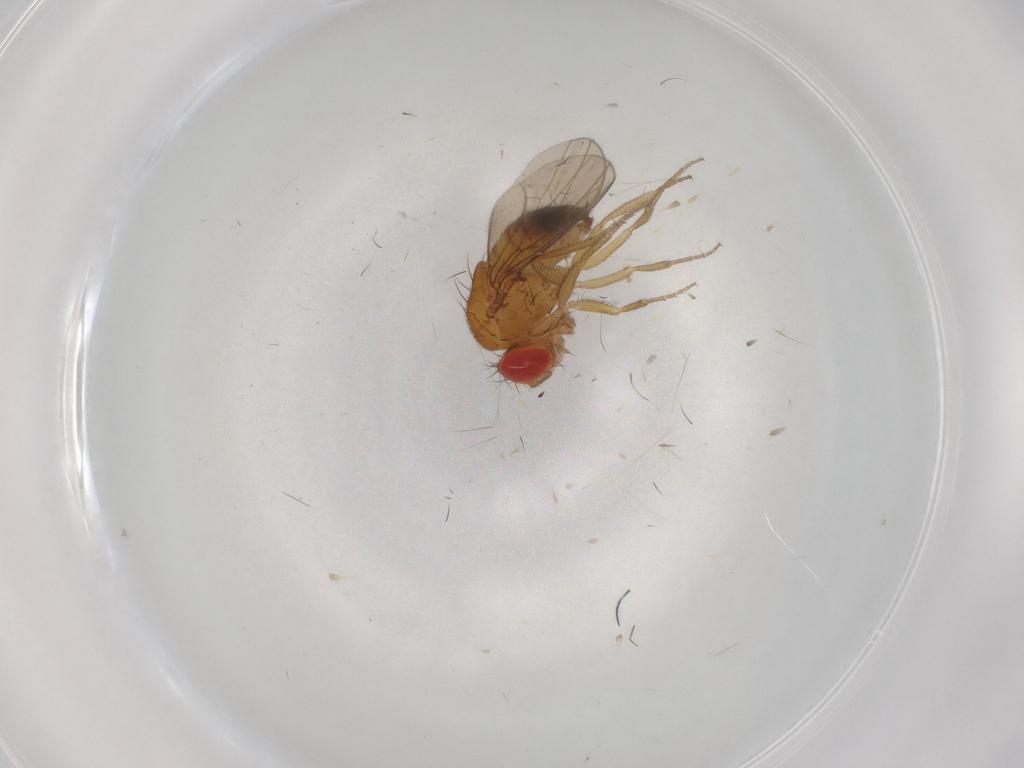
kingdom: Animalia
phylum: Arthropoda
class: Insecta
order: Diptera
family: Drosophilidae
